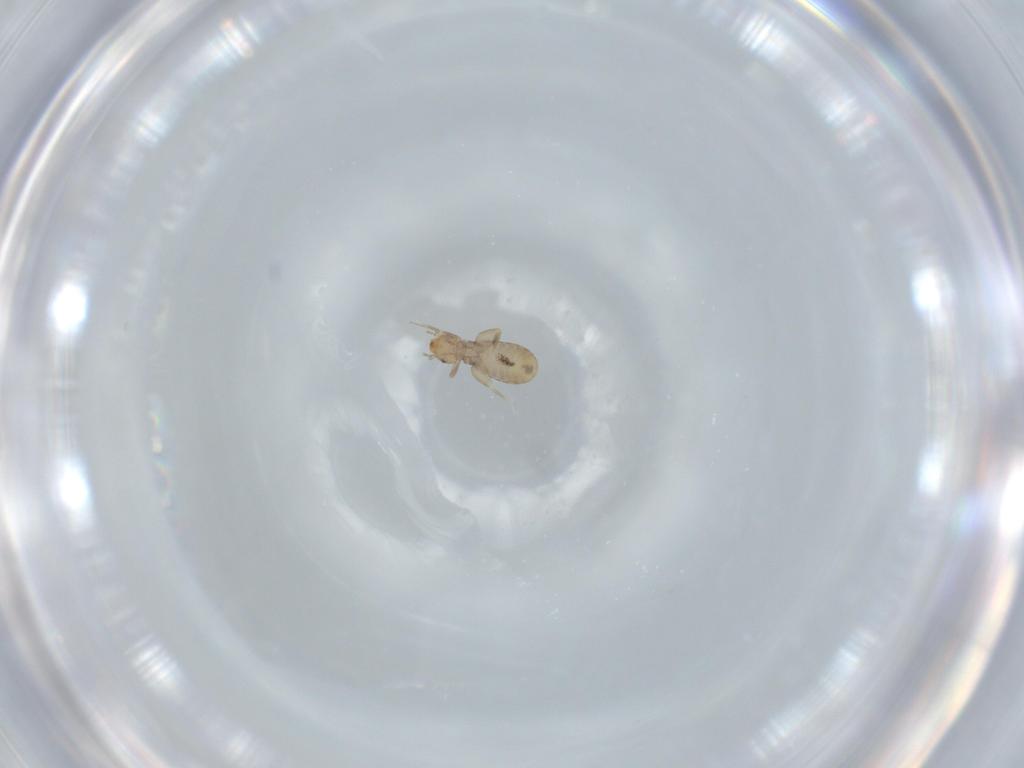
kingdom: Animalia
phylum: Arthropoda
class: Insecta
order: Psocodea
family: Liposcelididae
